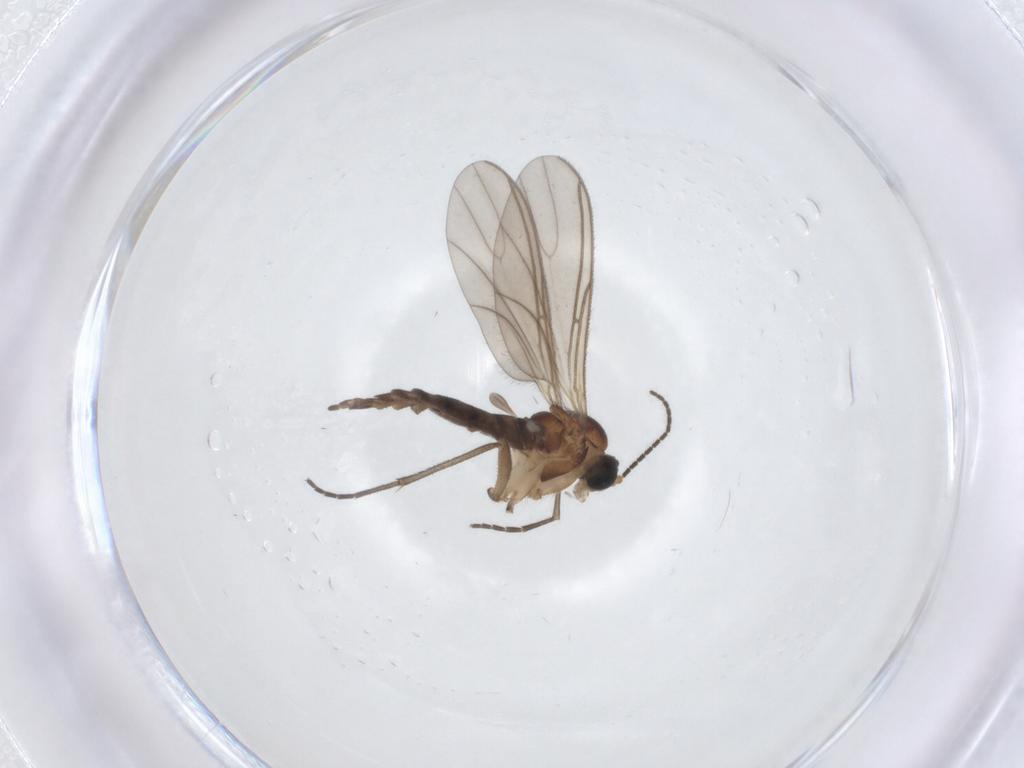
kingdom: Animalia
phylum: Arthropoda
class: Insecta
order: Diptera
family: Sciaridae
